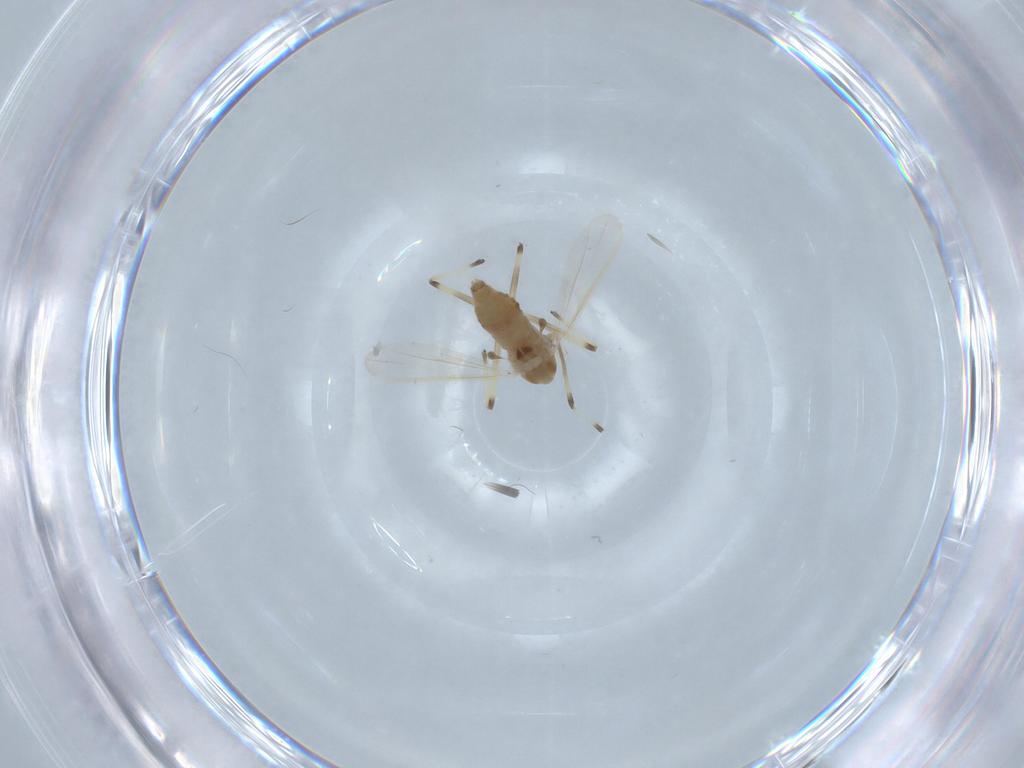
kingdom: Animalia
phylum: Arthropoda
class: Insecta
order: Diptera
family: Chironomidae
